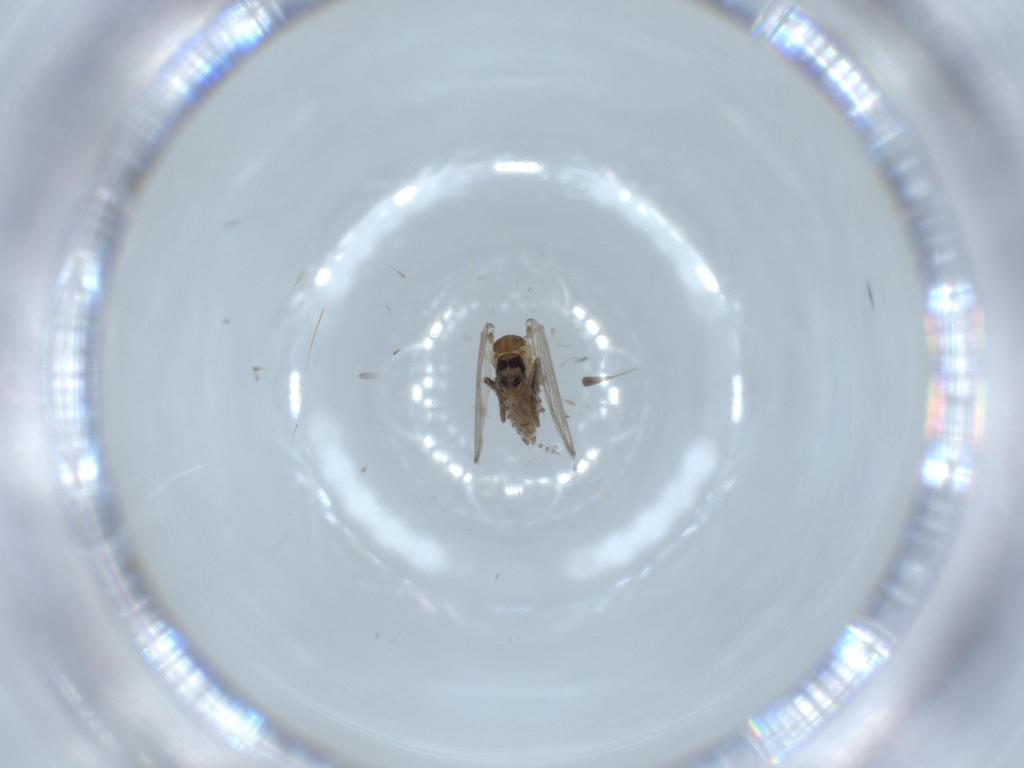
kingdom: Animalia
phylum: Arthropoda
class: Insecta
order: Diptera
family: Psychodidae
